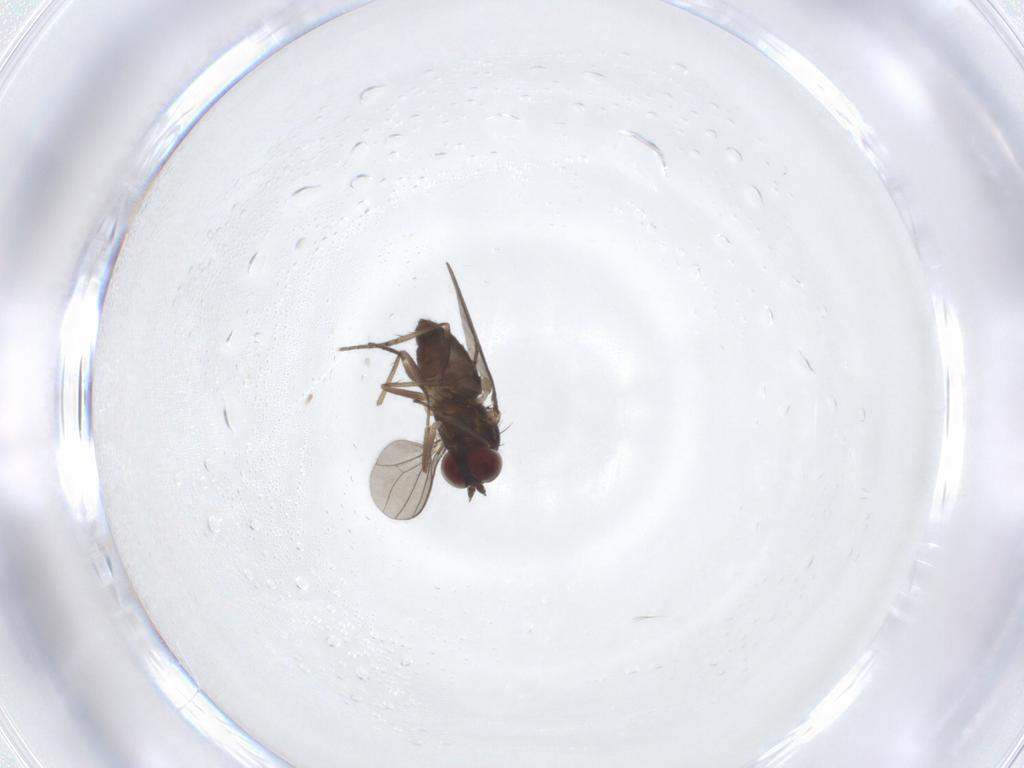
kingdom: Animalia
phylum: Arthropoda
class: Insecta
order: Diptera
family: Dolichopodidae
